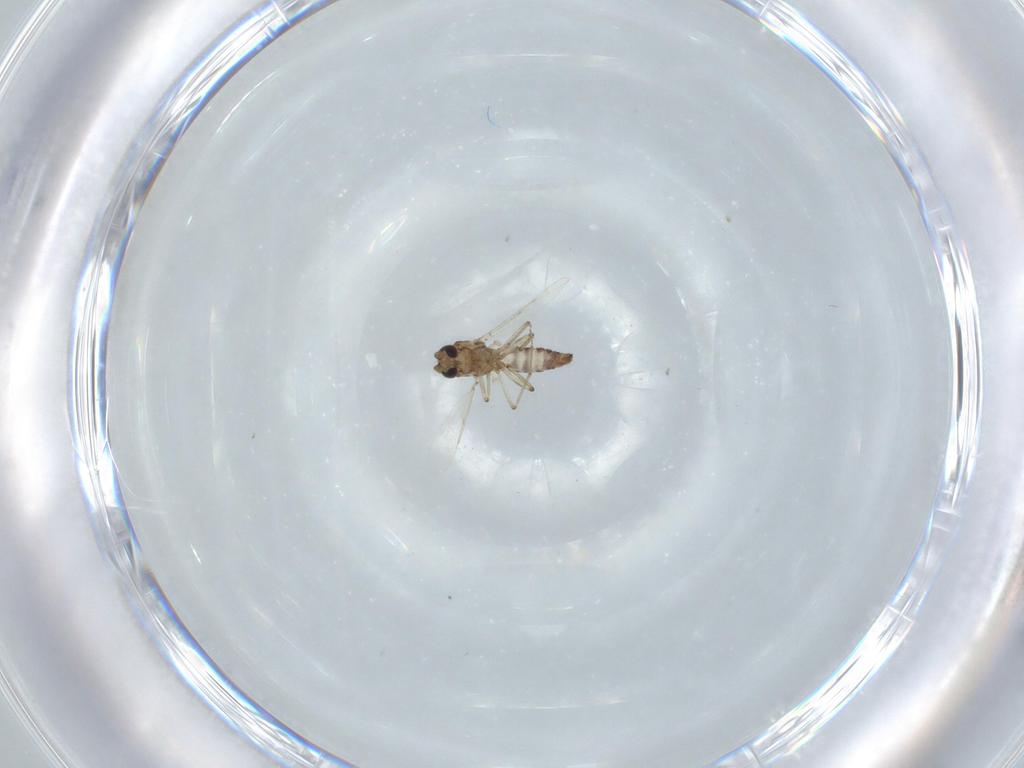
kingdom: Animalia
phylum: Arthropoda
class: Insecta
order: Diptera
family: Ceratopogonidae
